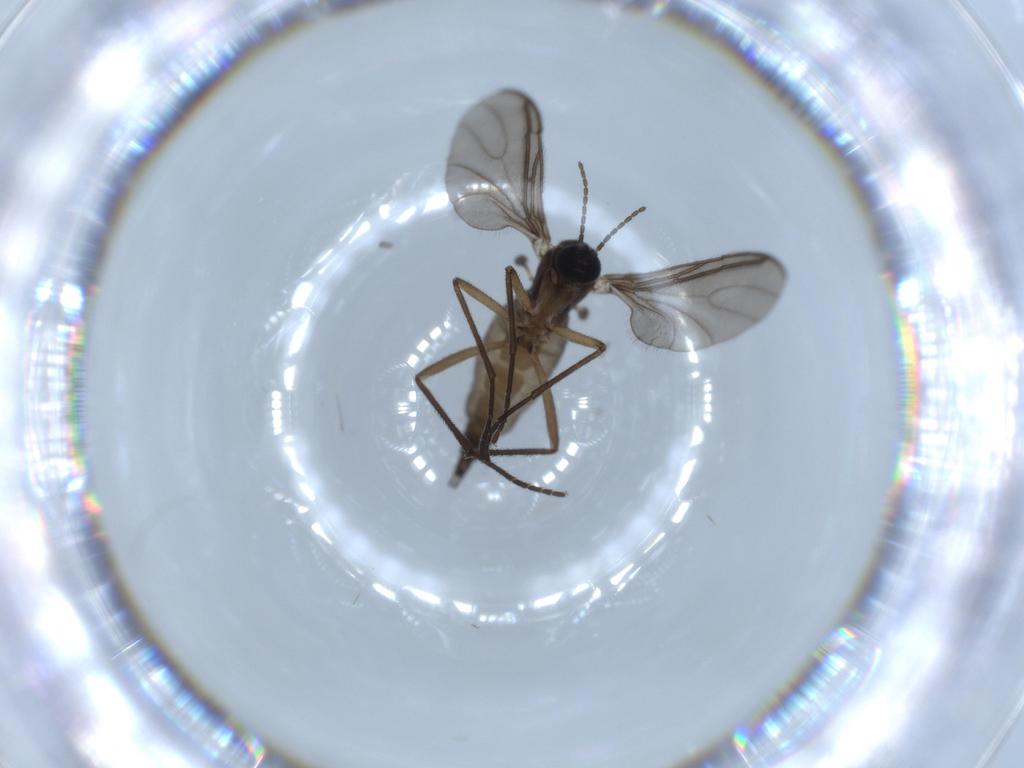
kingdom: Animalia
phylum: Arthropoda
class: Insecta
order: Diptera
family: Sciaridae
